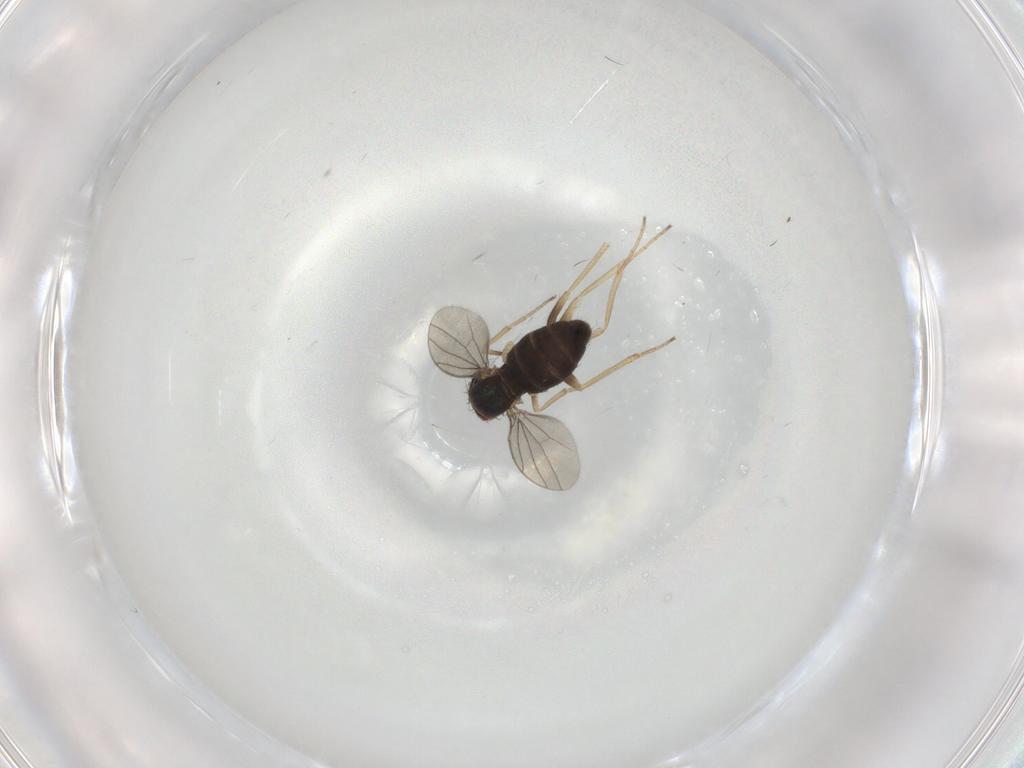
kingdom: Animalia
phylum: Arthropoda
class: Insecta
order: Diptera
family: Dolichopodidae
